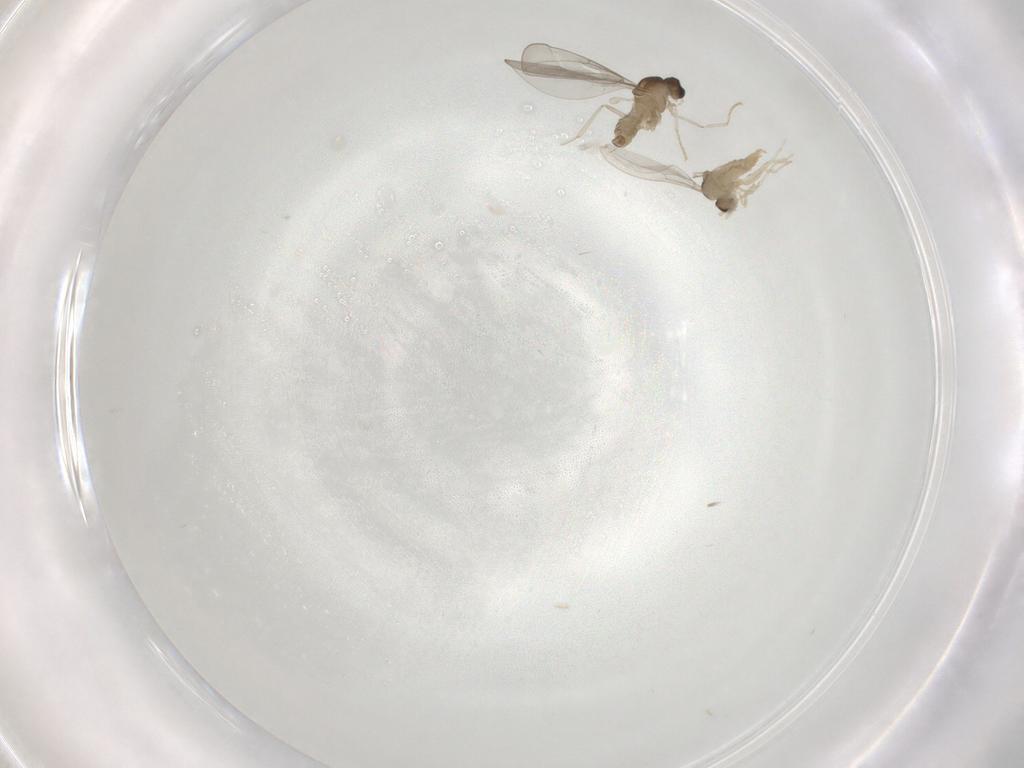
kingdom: Animalia
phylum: Arthropoda
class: Insecta
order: Diptera
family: Cecidomyiidae
